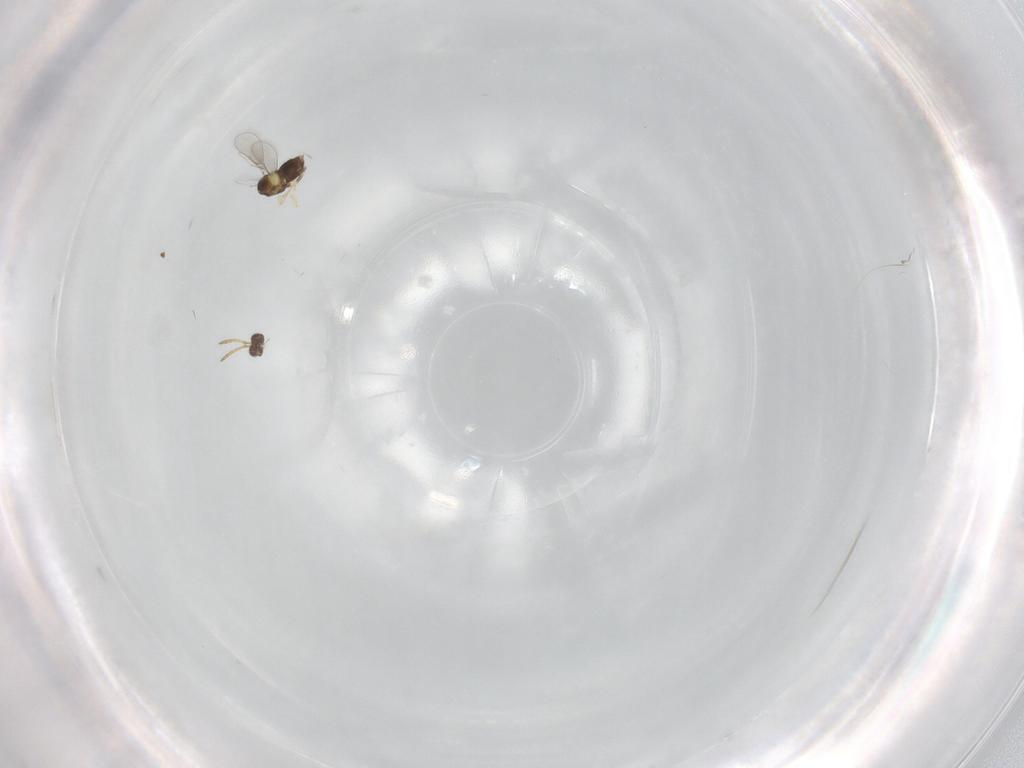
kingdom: Animalia
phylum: Arthropoda
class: Insecta
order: Hymenoptera
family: Aphelinidae
